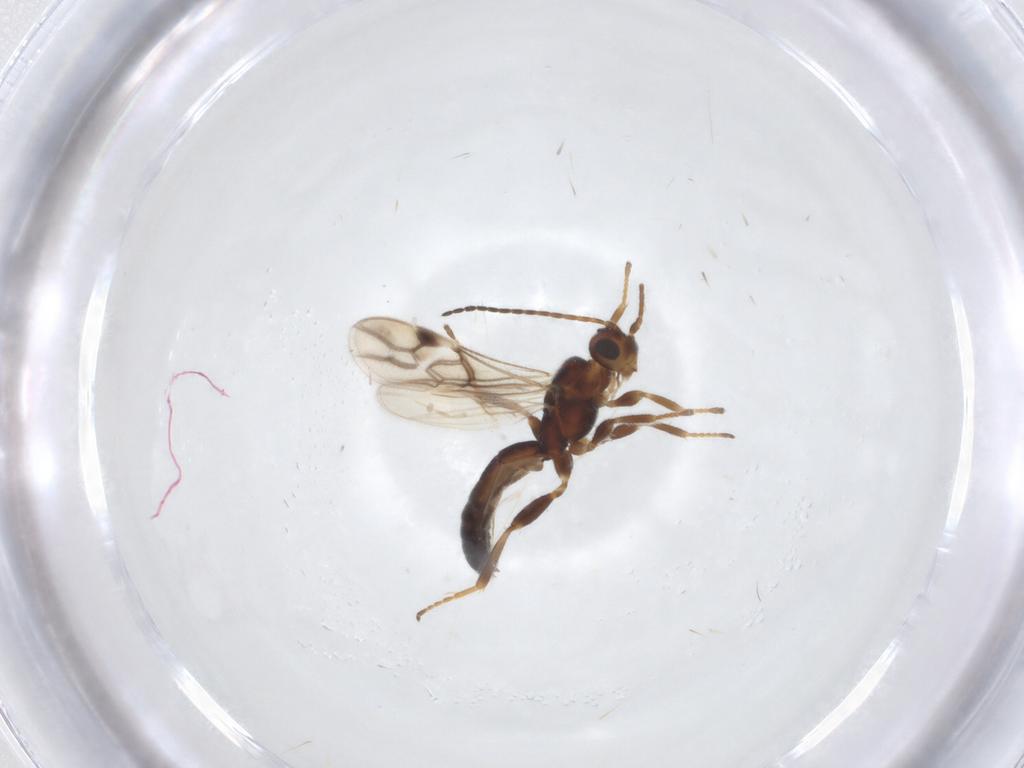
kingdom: Animalia
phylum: Arthropoda
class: Insecta
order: Hymenoptera
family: Braconidae
